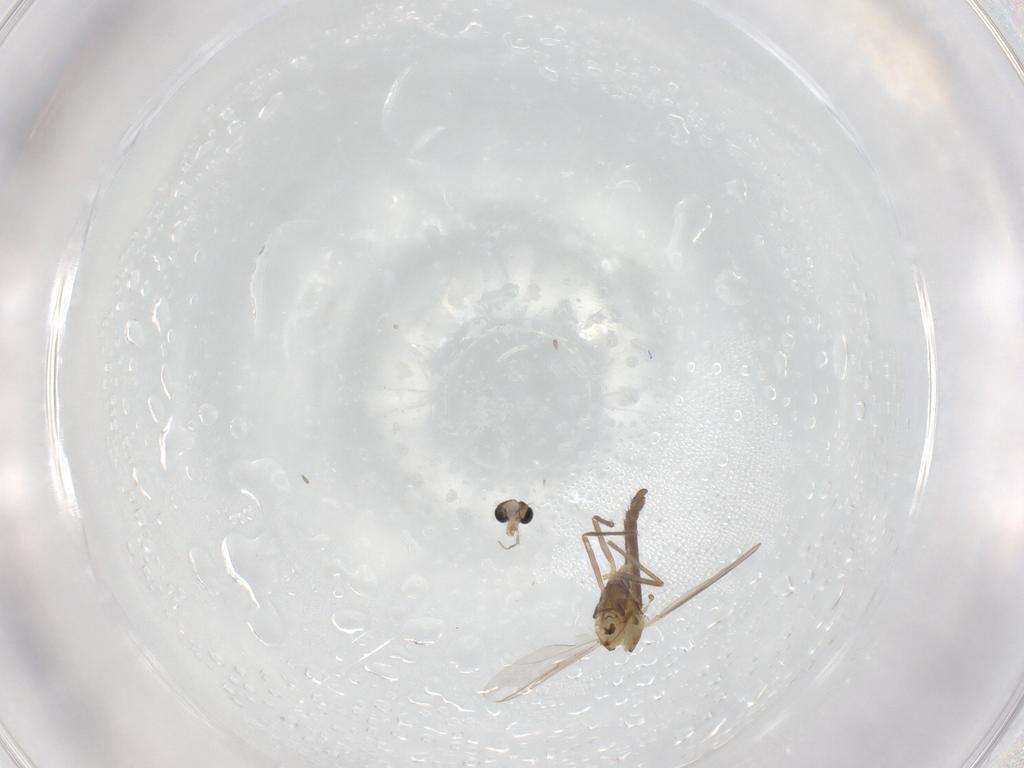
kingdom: Animalia
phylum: Arthropoda
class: Insecta
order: Diptera
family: Chironomidae
